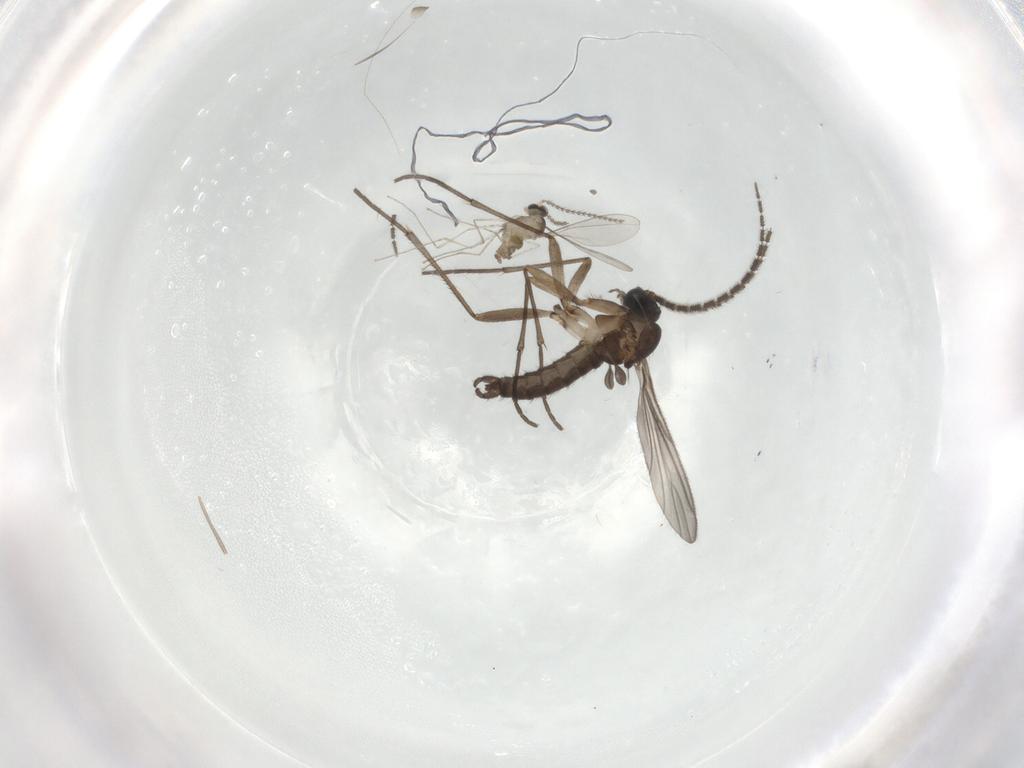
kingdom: Animalia
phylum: Arthropoda
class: Insecta
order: Diptera
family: Sciaridae
